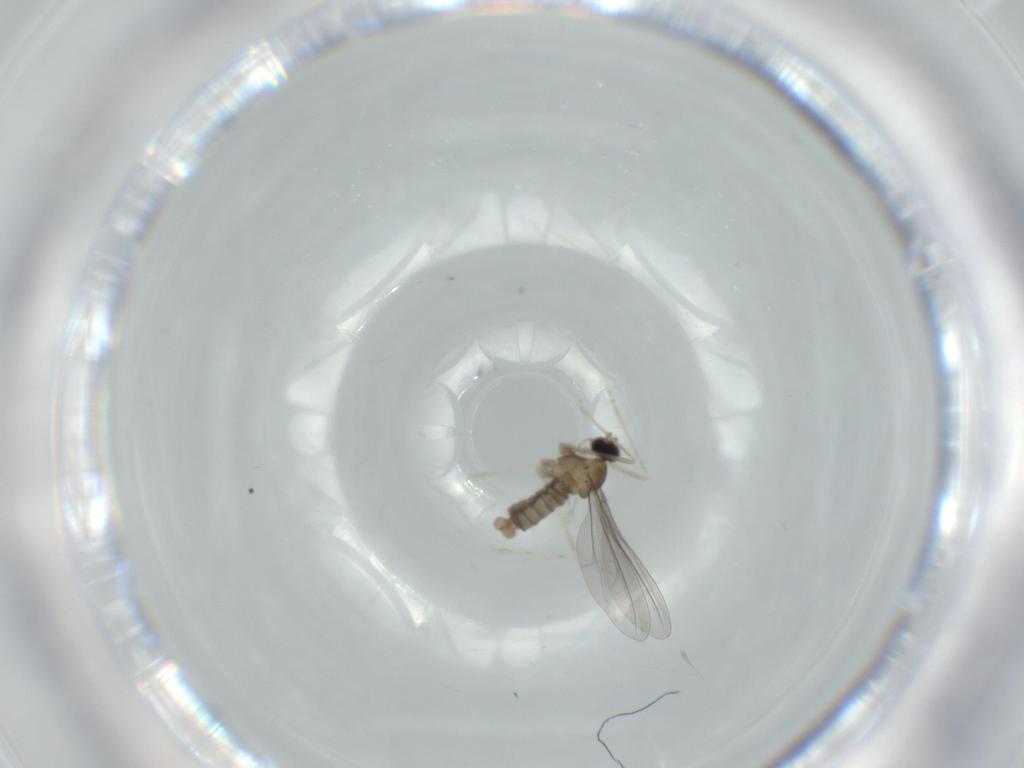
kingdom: Animalia
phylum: Arthropoda
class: Insecta
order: Diptera
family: Cecidomyiidae
